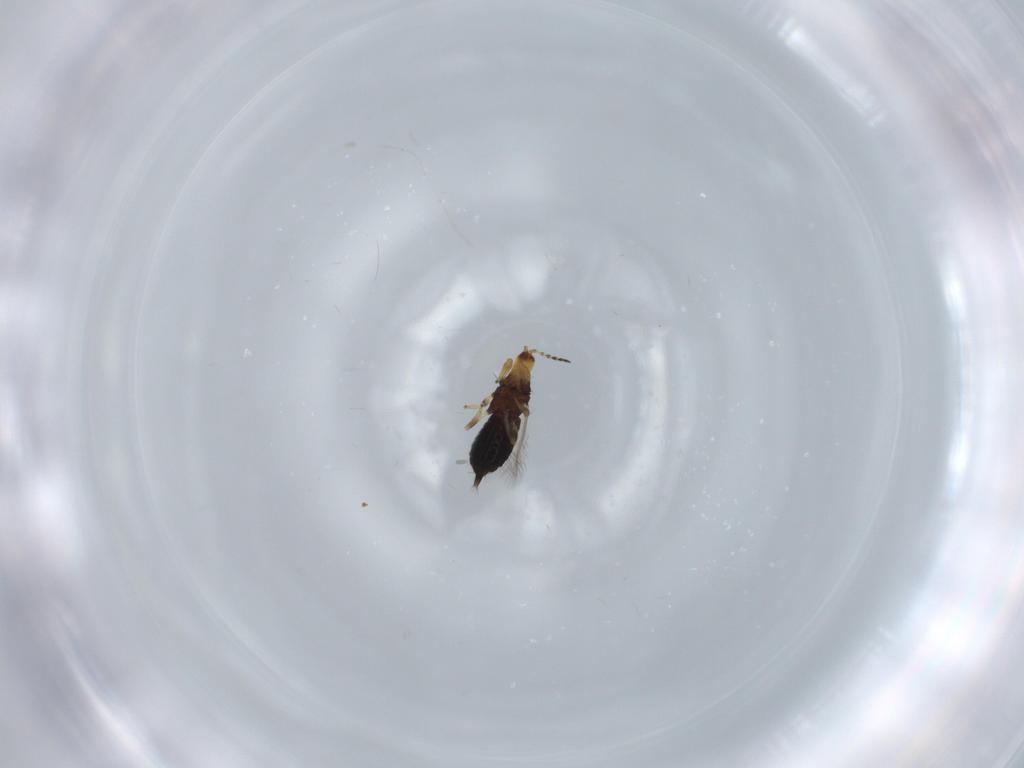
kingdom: Animalia
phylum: Arthropoda
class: Insecta
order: Thysanoptera
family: Phlaeothripidae
